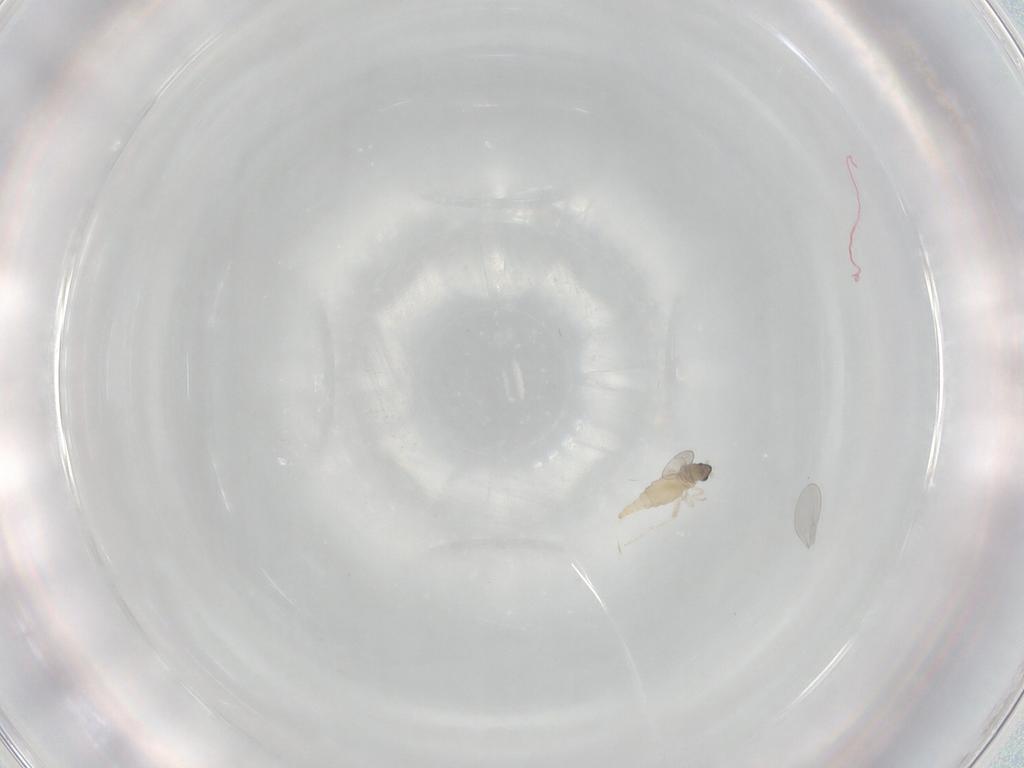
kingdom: Animalia
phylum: Arthropoda
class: Insecta
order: Diptera
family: Cecidomyiidae
